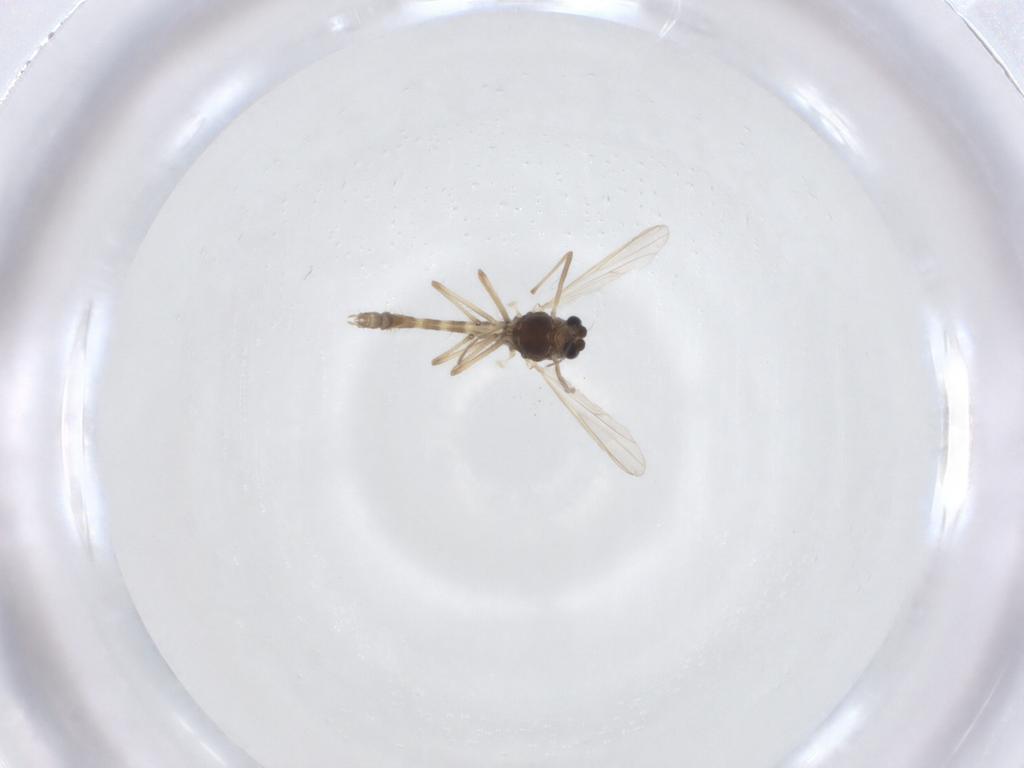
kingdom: Animalia
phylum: Arthropoda
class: Insecta
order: Diptera
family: Chironomidae
